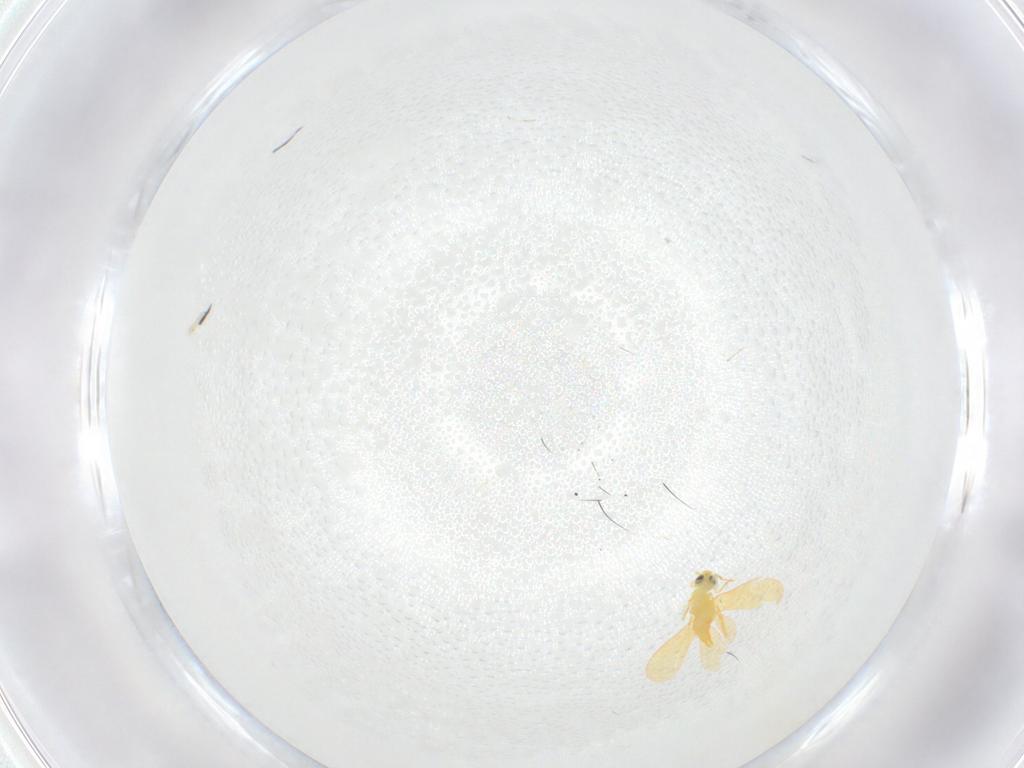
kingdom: Animalia
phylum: Arthropoda
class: Insecta
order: Hemiptera
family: Aleyrodidae
